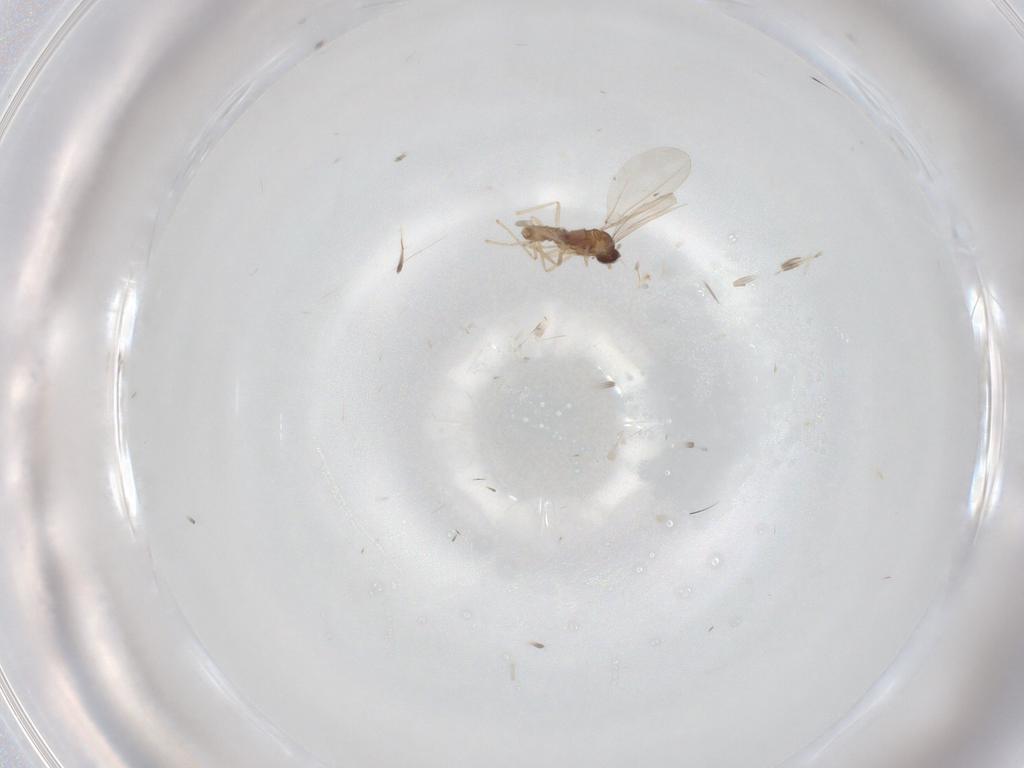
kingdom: Animalia
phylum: Arthropoda
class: Insecta
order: Diptera
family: Cecidomyiidae
